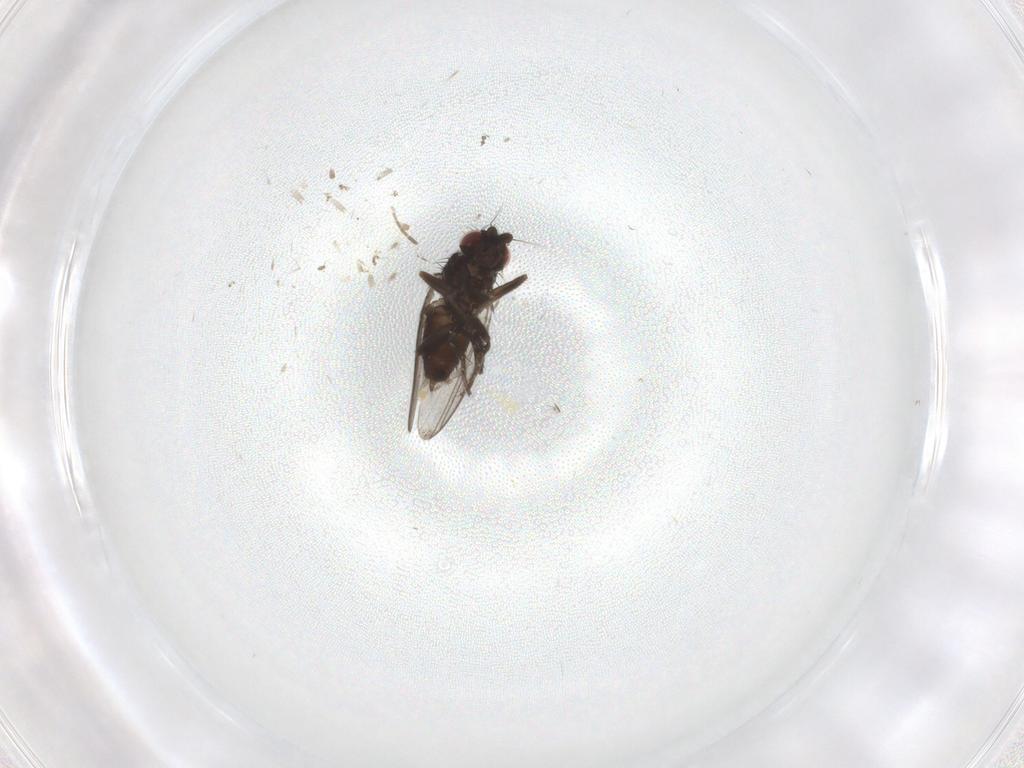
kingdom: Animalia
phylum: Arthropoda
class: Insecta
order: Diptera
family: Milichiidae
